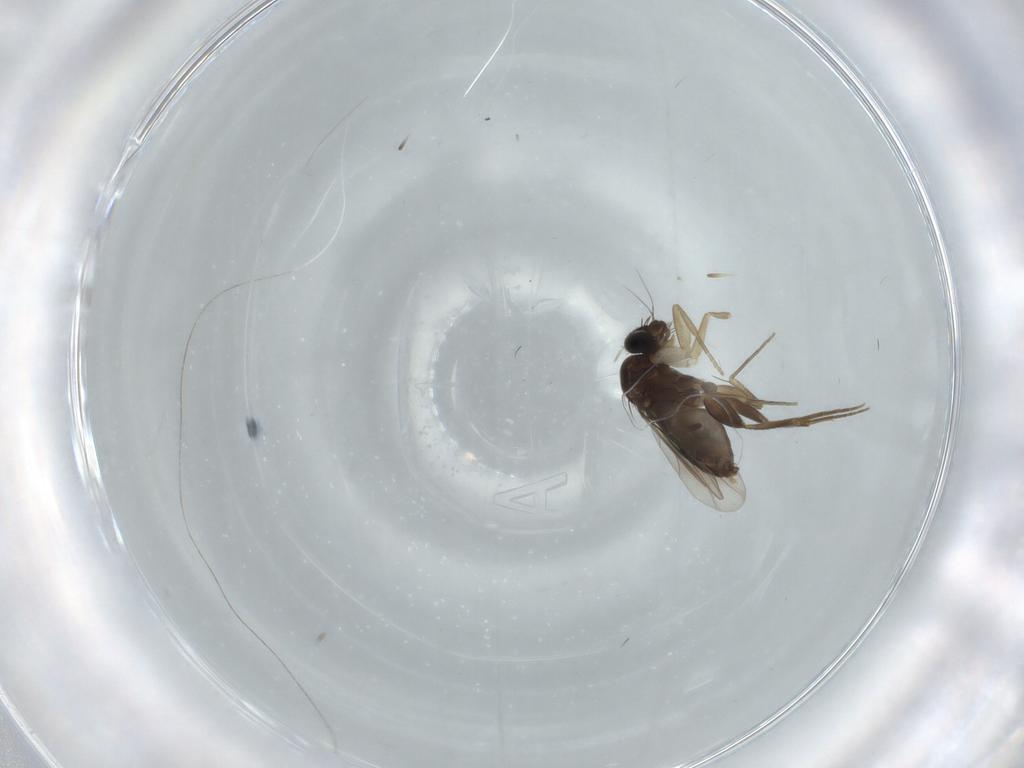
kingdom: Animalia
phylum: Arthropoda
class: Insecta
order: Diptera
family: Phoridae
